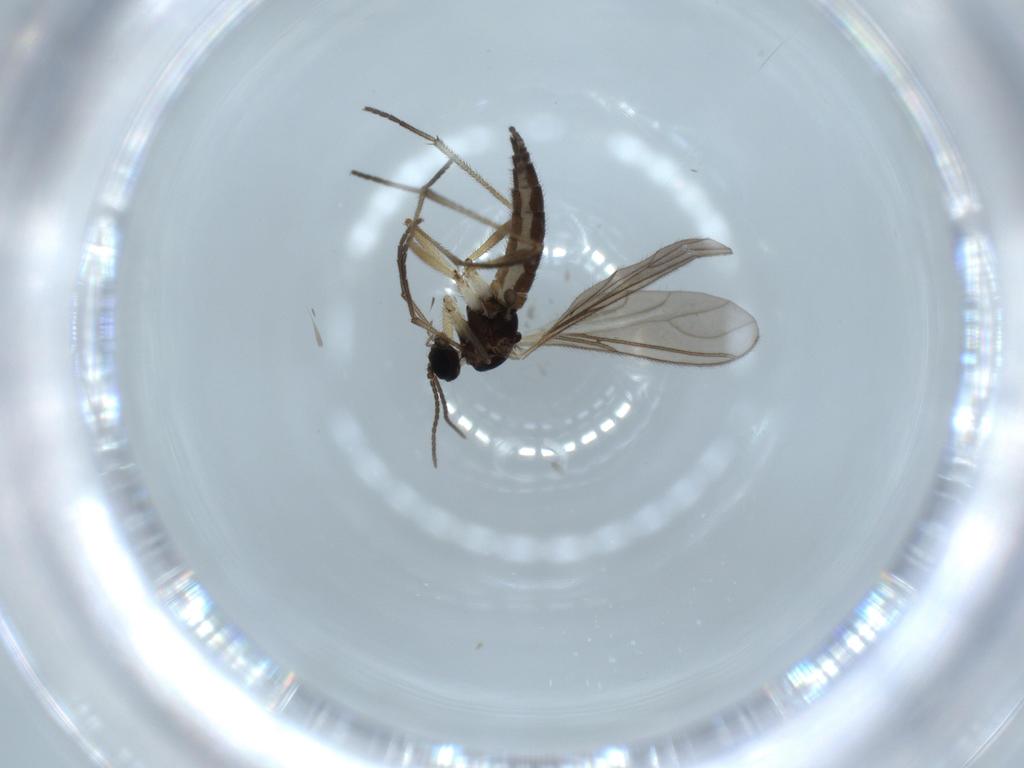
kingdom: Animalia
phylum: Arthropoda
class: Insecta
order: Diptera
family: Sciaridae
